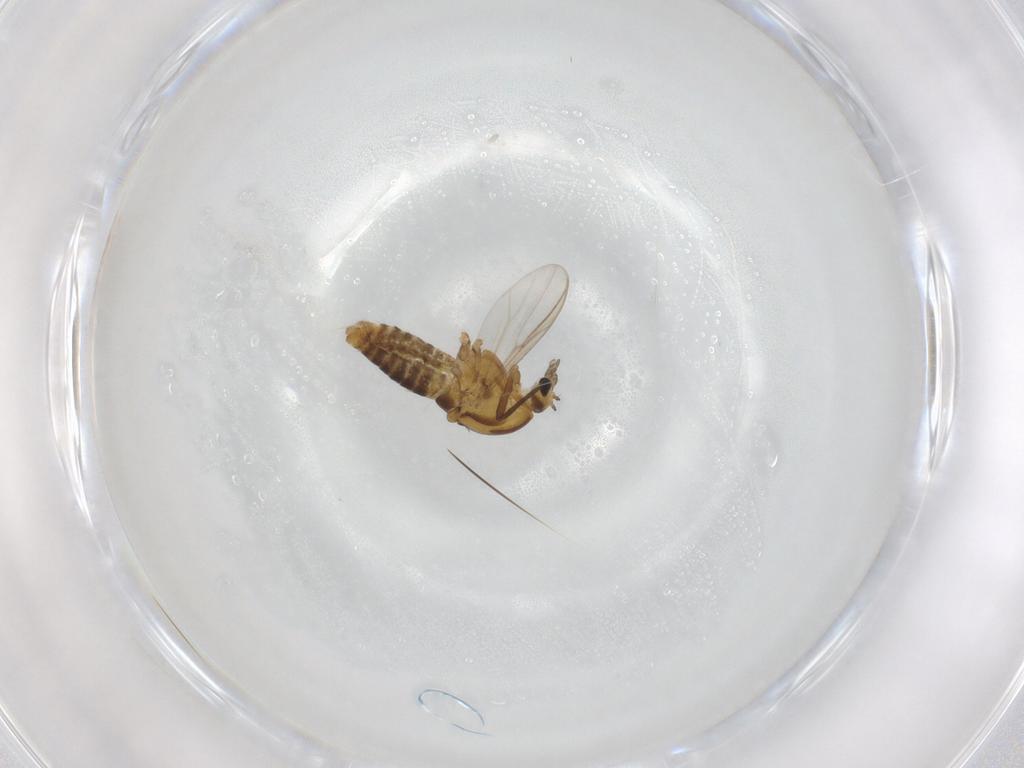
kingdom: Animalia
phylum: Arthropoda
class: Insecta
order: Diptera
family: Chironomidae
